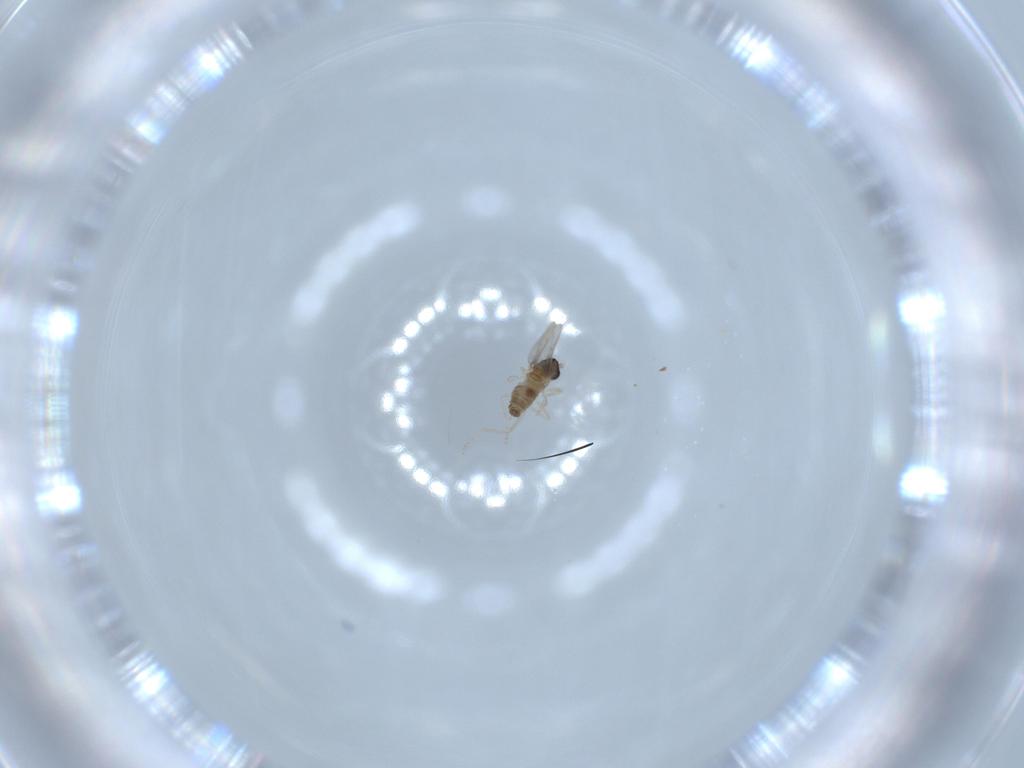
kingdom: Animalia
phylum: Arthropoda
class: Insecta
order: Diptera
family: Cecidomyiidae
